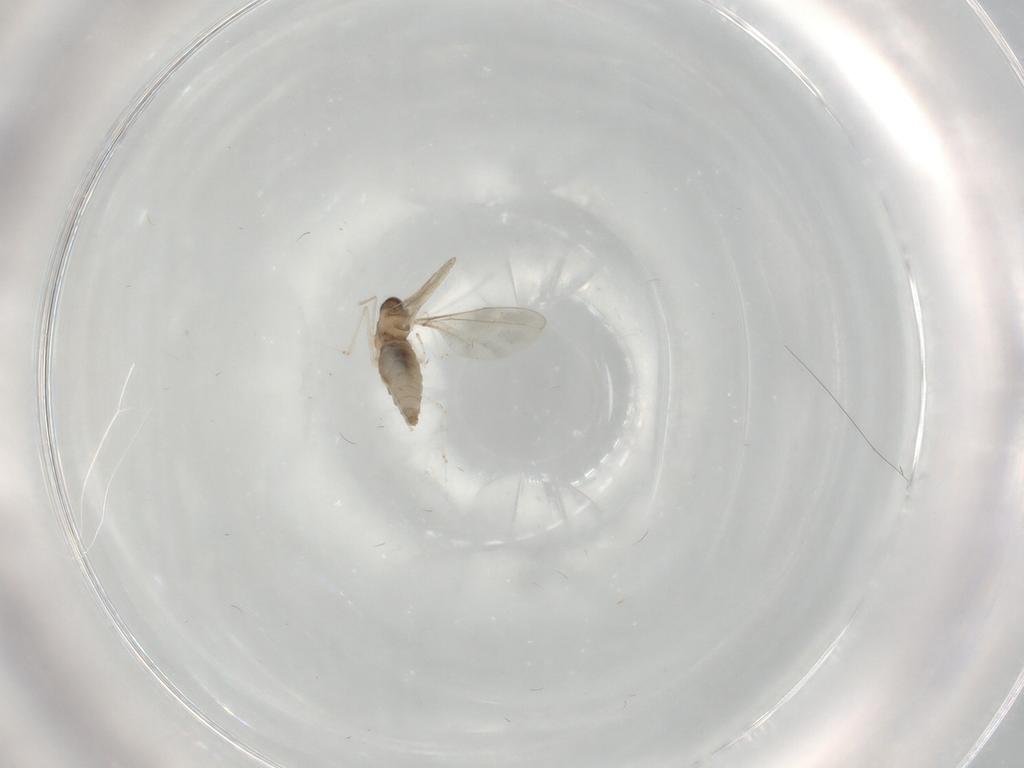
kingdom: Animalia
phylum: Arthropoda
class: Insecta
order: Diptera
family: Cecidomyiidae
